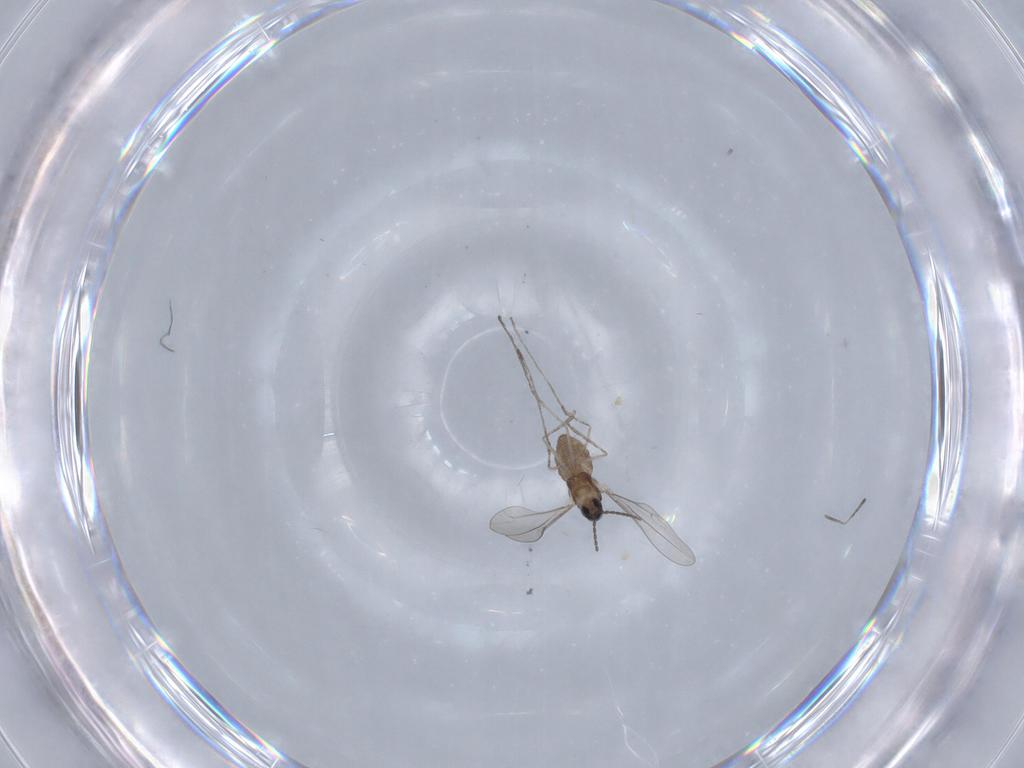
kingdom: Animalia
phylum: Arthropoda
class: Insecta
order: Diptera
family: Cecidomyiidae
